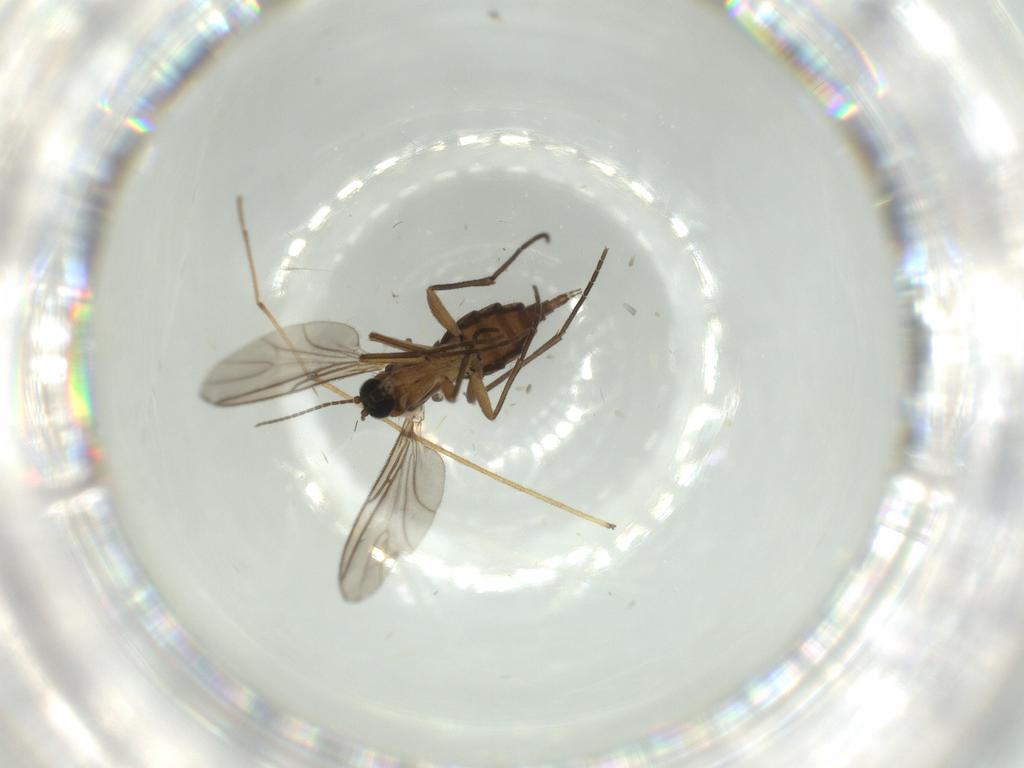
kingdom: Animalia
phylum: Arthropoda
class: Insecta
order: Diptera
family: Sciaridae
